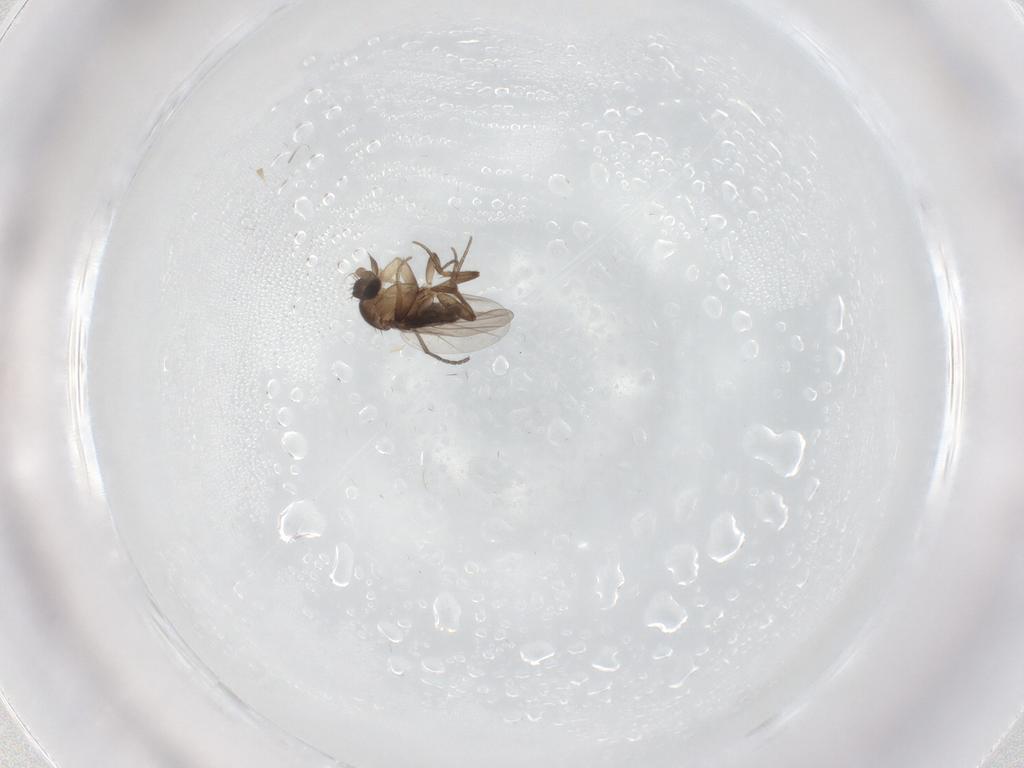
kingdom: Animalia
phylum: Arthropoda
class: Insecta
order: Diptera
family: Sciaridae
